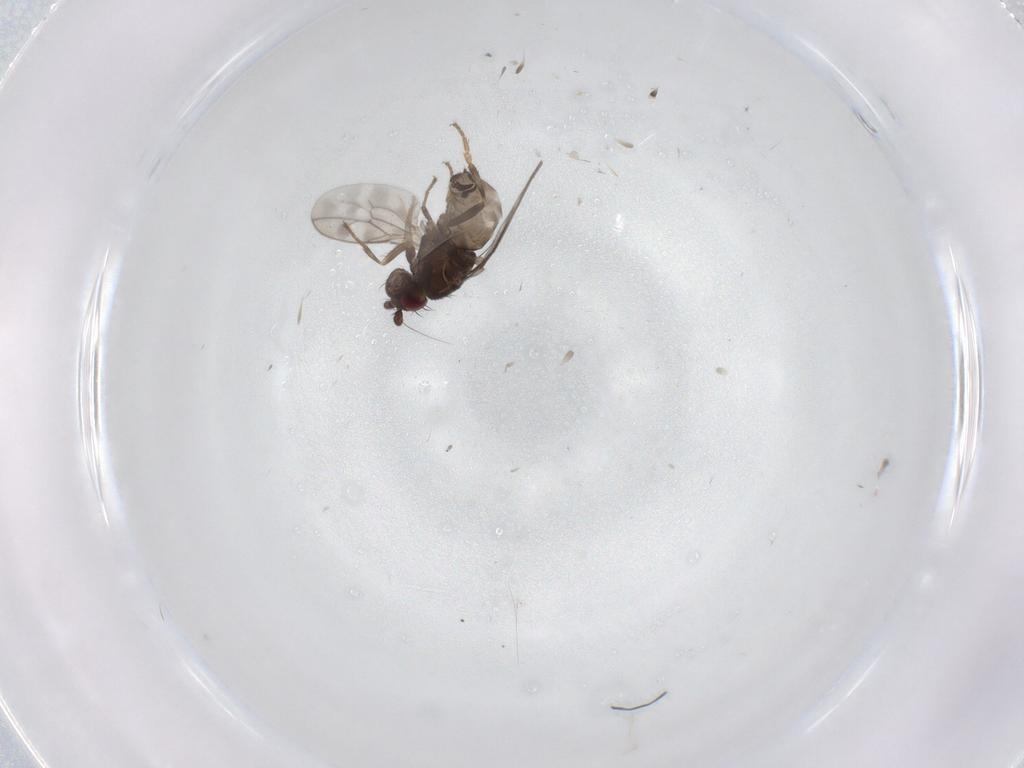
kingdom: Animalia
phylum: Arthropoda
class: Insecta
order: Diptera
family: Sphaeroceridae
